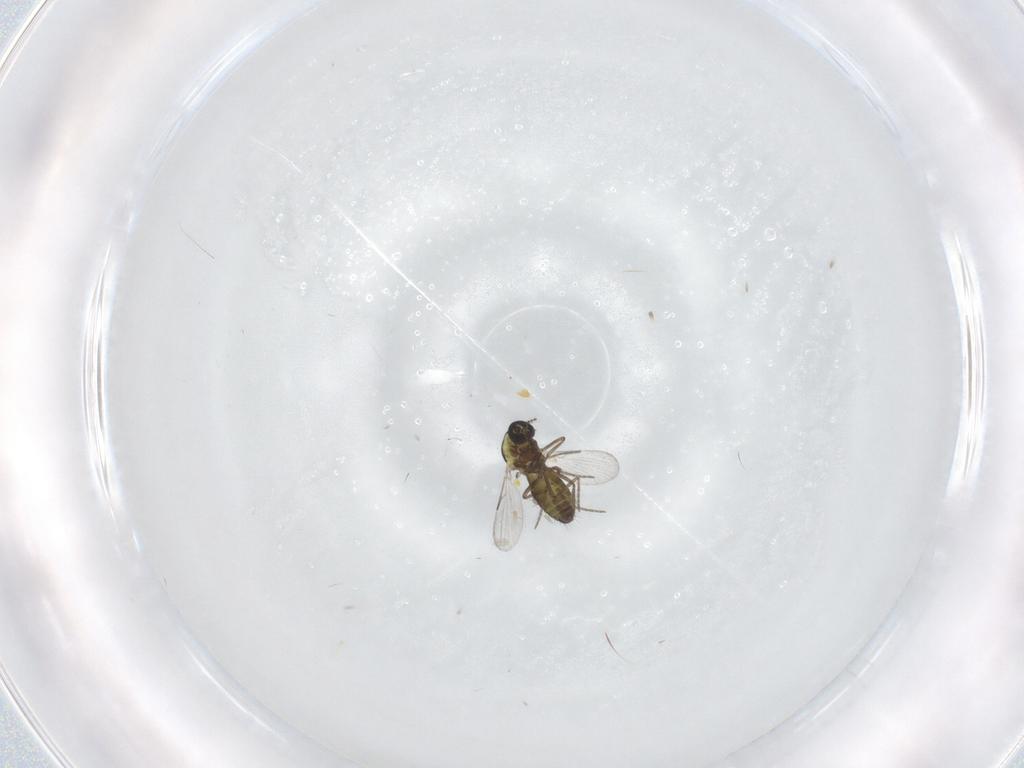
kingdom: Animalia
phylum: Arthropoda
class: Insecta
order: Diptera
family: Ceratopogonidae
